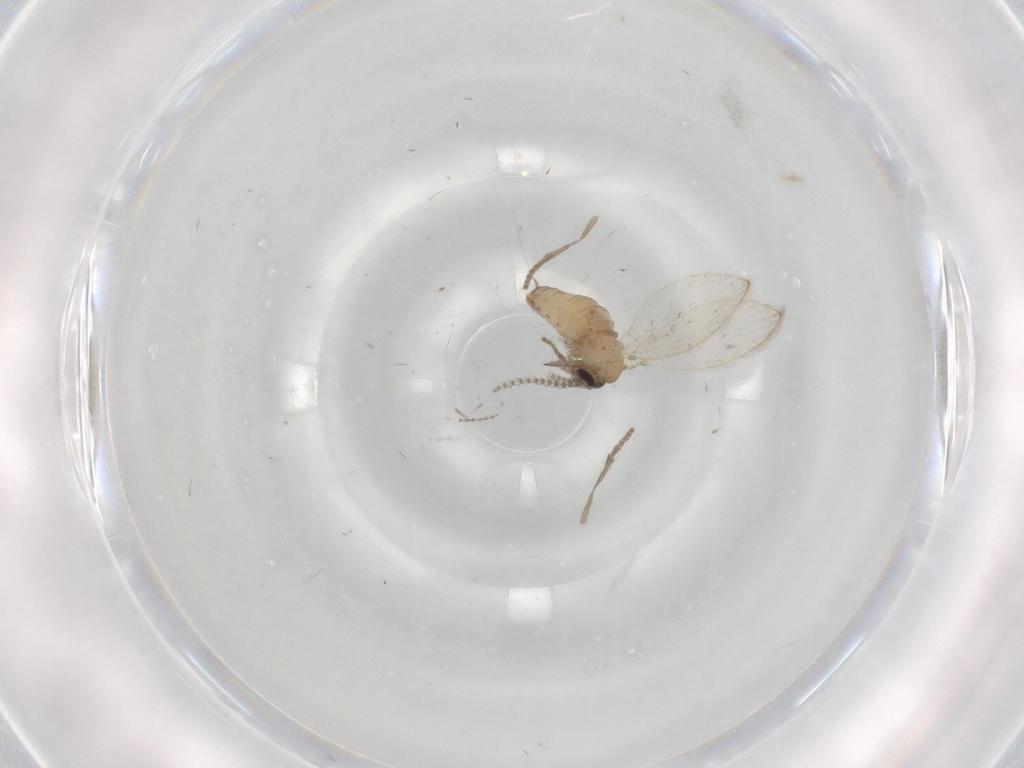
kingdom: Animalia
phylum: Arthropoda
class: Insecta
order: Diptera
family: Psychodidae
